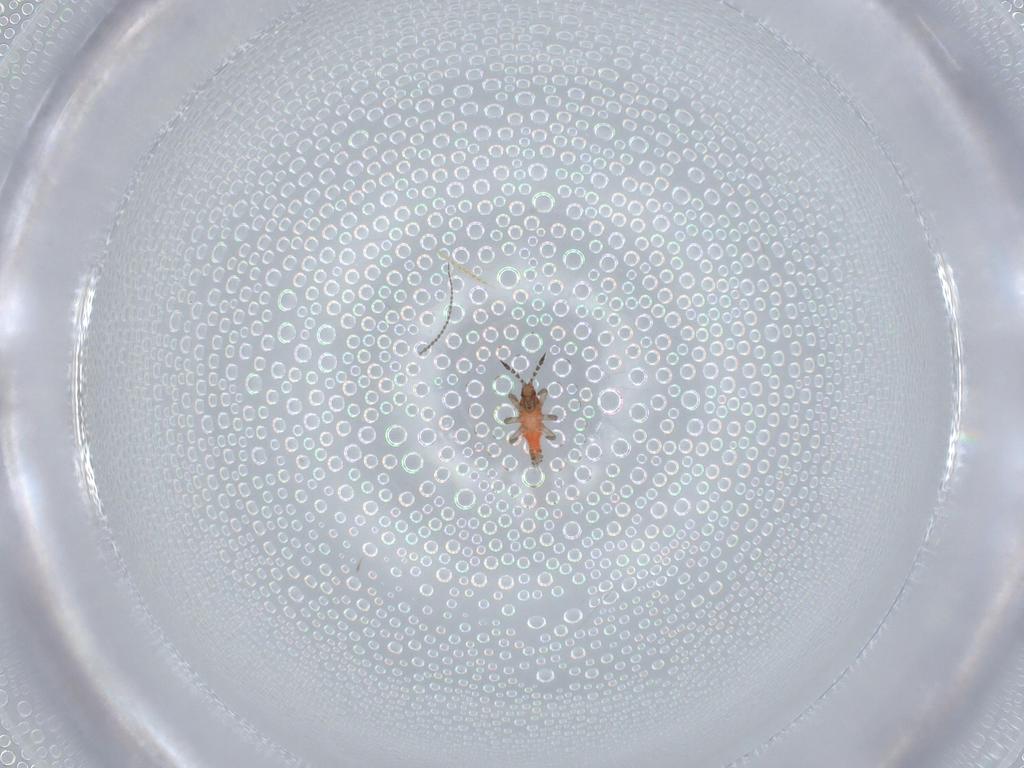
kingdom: Animalia
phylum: Arthropoda
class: Insecta
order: Thysanoptera
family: Phlaeothripidae
